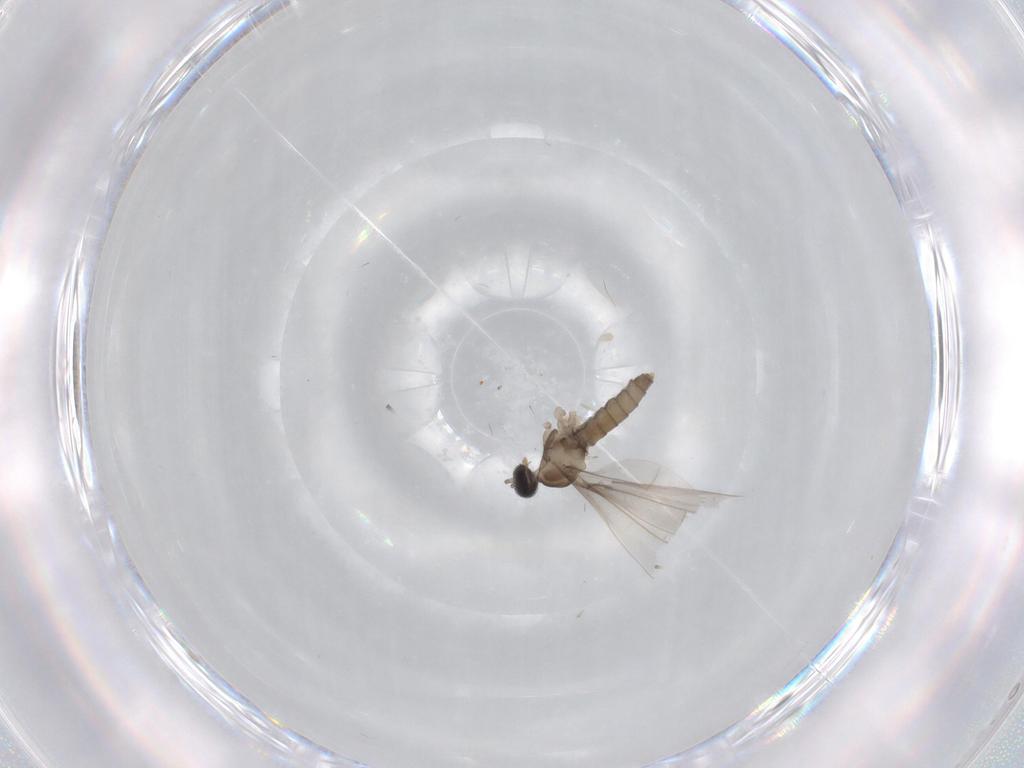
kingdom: Animalia
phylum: Arthropoda
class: Insecta
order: Diptera
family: Cecidomyiidae
